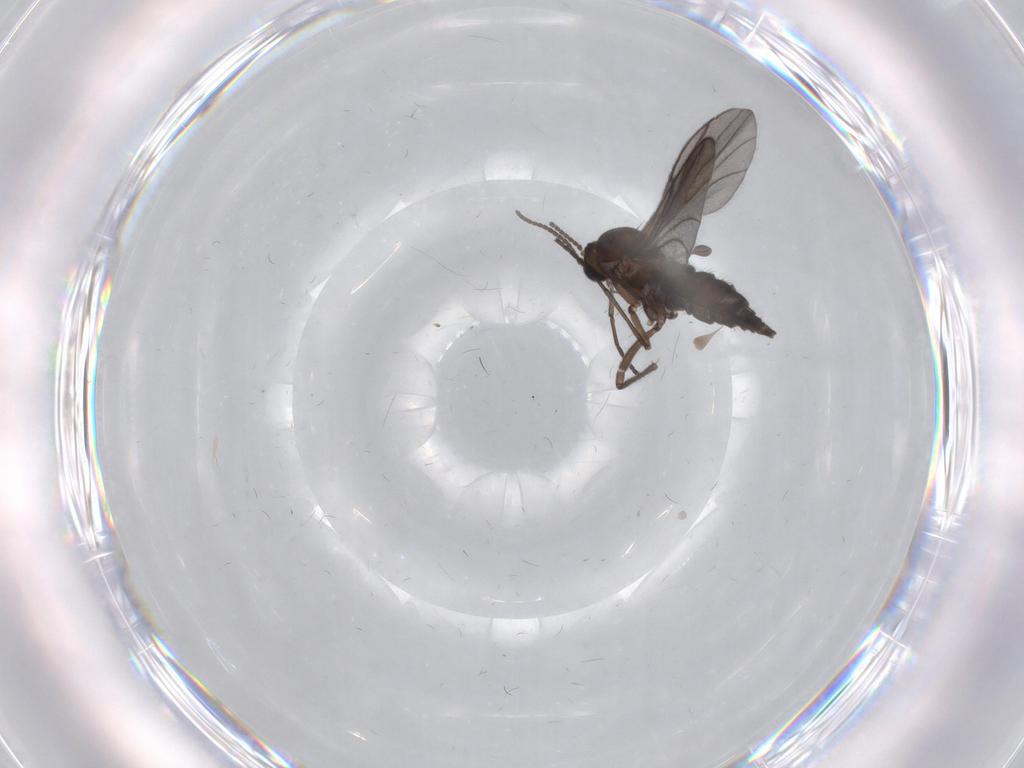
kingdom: Animalia
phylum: Arthropoda
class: Insecta
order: Diptera
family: Sciaridae
